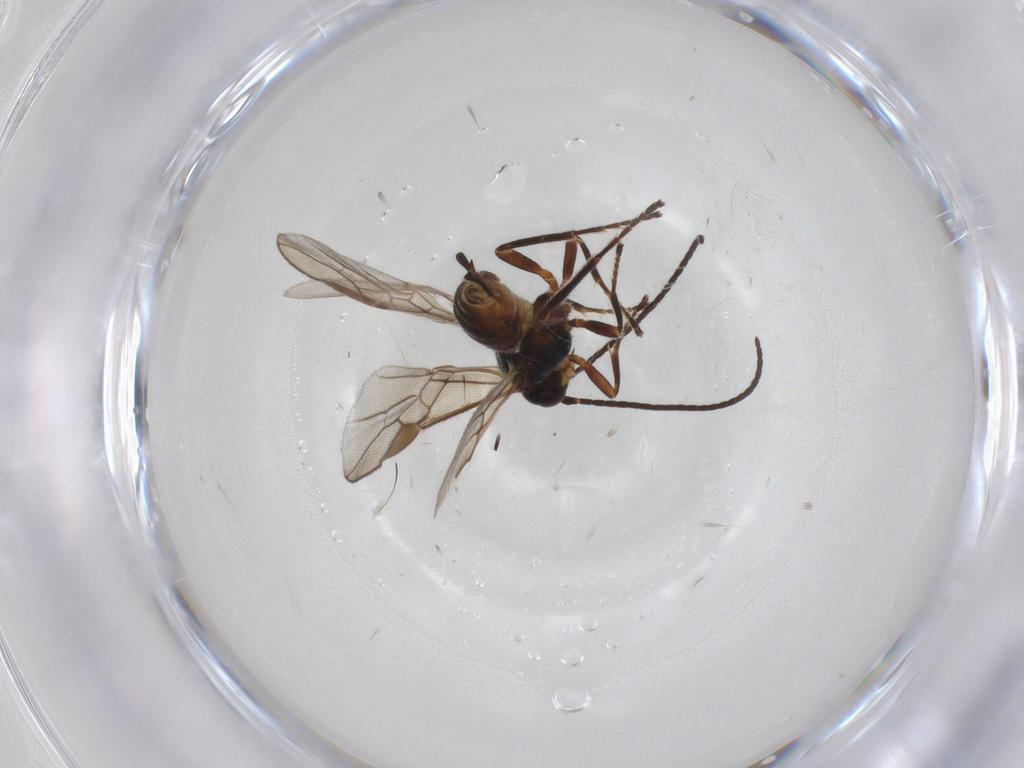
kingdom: Animalia
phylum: Arthropoda
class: Insecta
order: Hymenoptera
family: Braconidae
